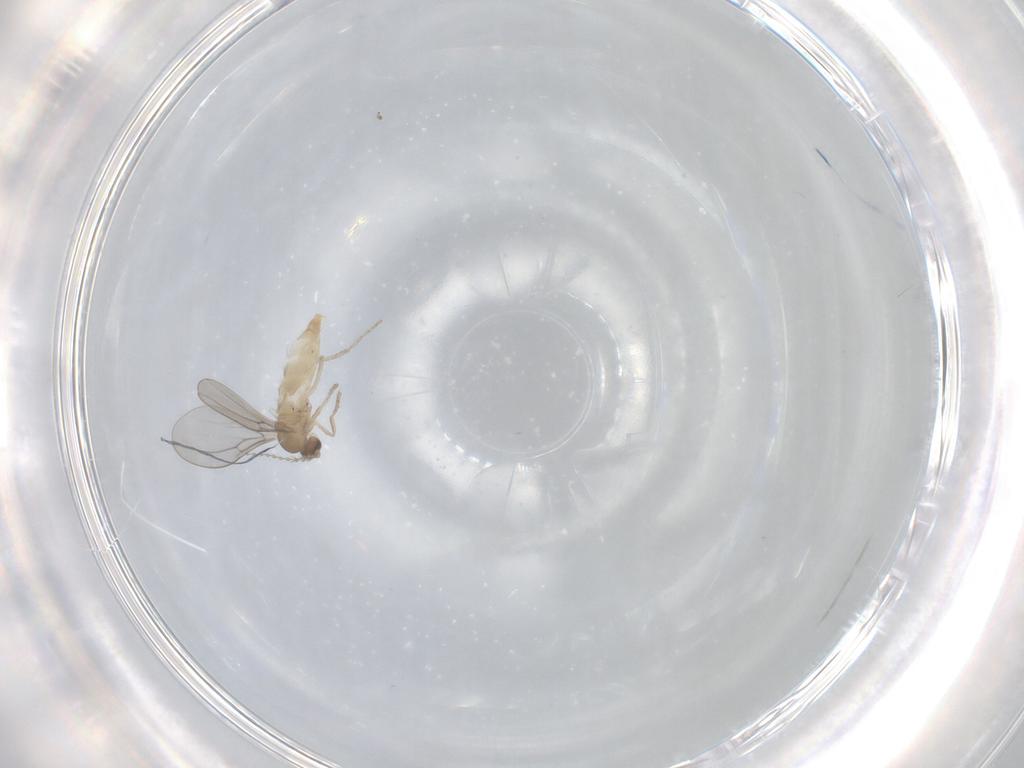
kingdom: Animalia
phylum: Arthropoda
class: Insecta
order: Diptera
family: Cecidomyiidae
